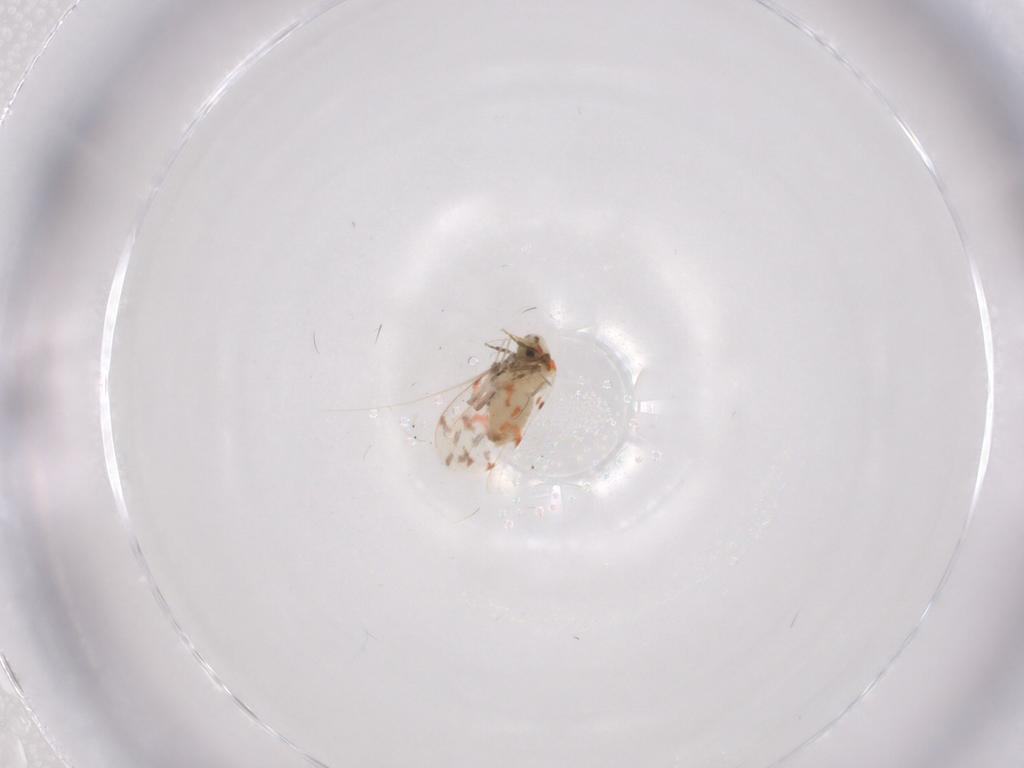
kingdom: Animalia
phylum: Arthropoda
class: Insecta
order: Hemiptera
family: Aleyrodidae
